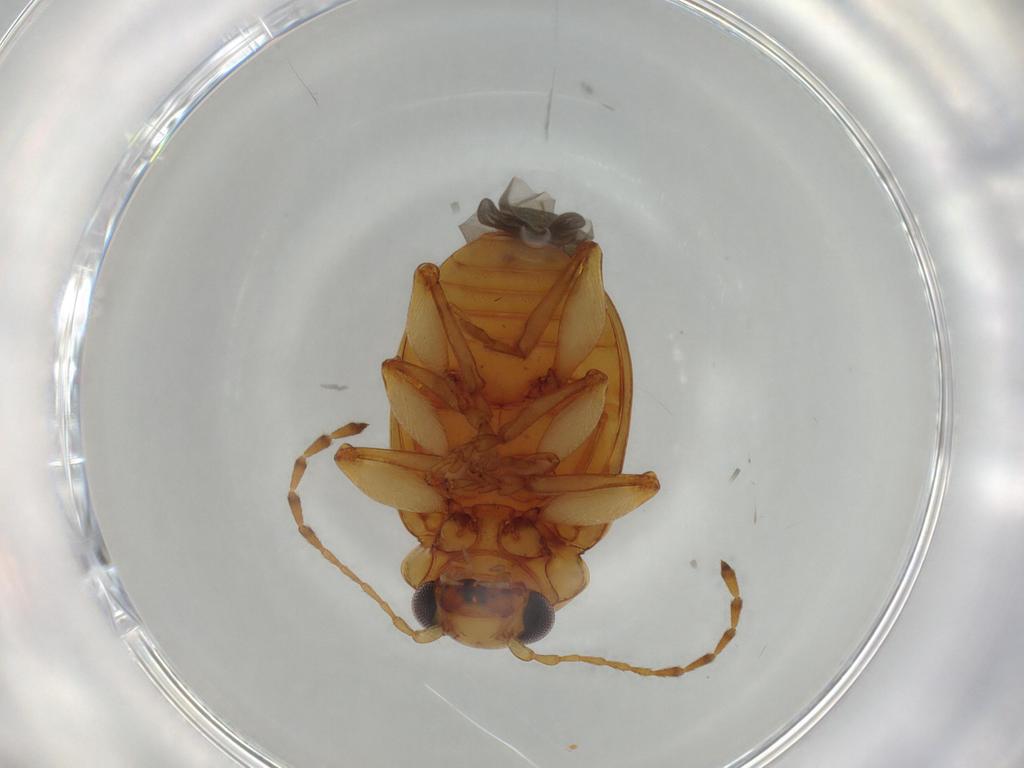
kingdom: Animalia
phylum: Arthropoda
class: Insecta
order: Coleoptera
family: Chrysomelidae
